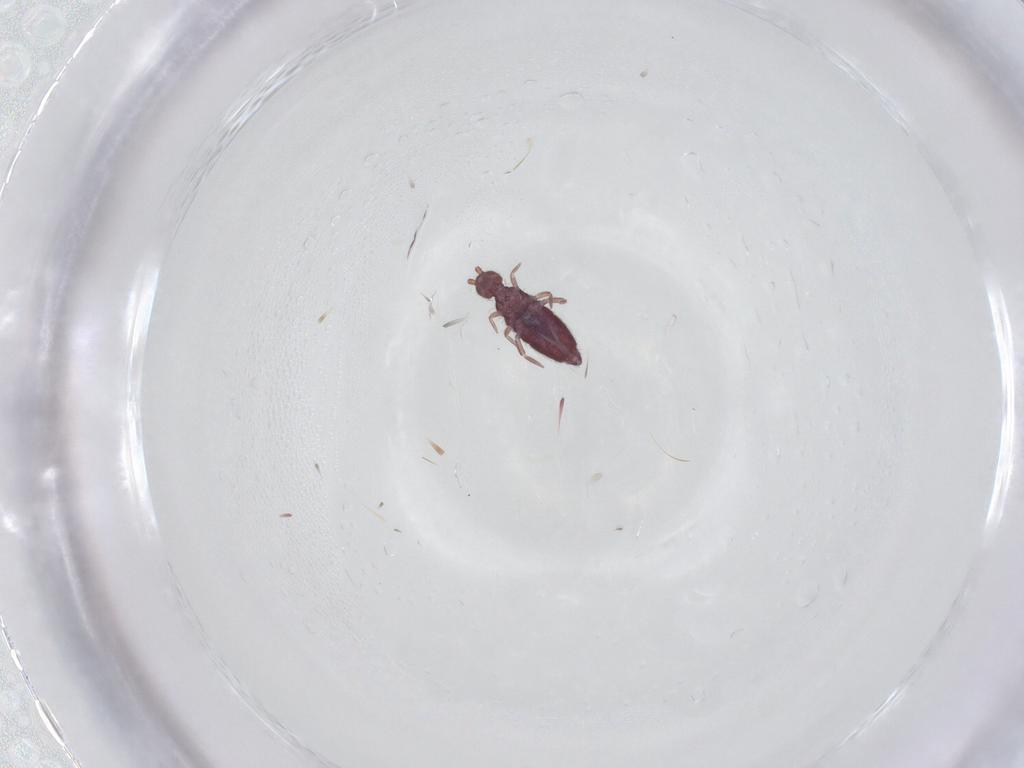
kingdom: Animalia
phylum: Arthropoda
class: Collembola
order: Entomobryomorpha
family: Entomobryidae
